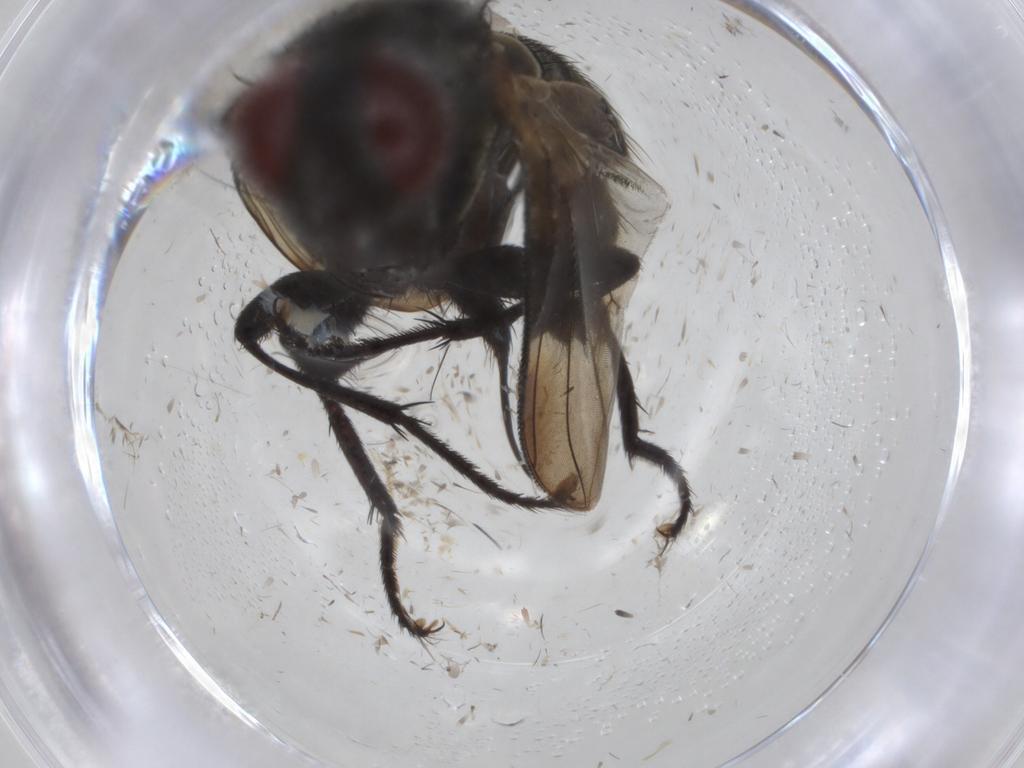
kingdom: Animalia
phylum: Arthropoda
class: Insecta
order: Diptera
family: Sarcophagidae
